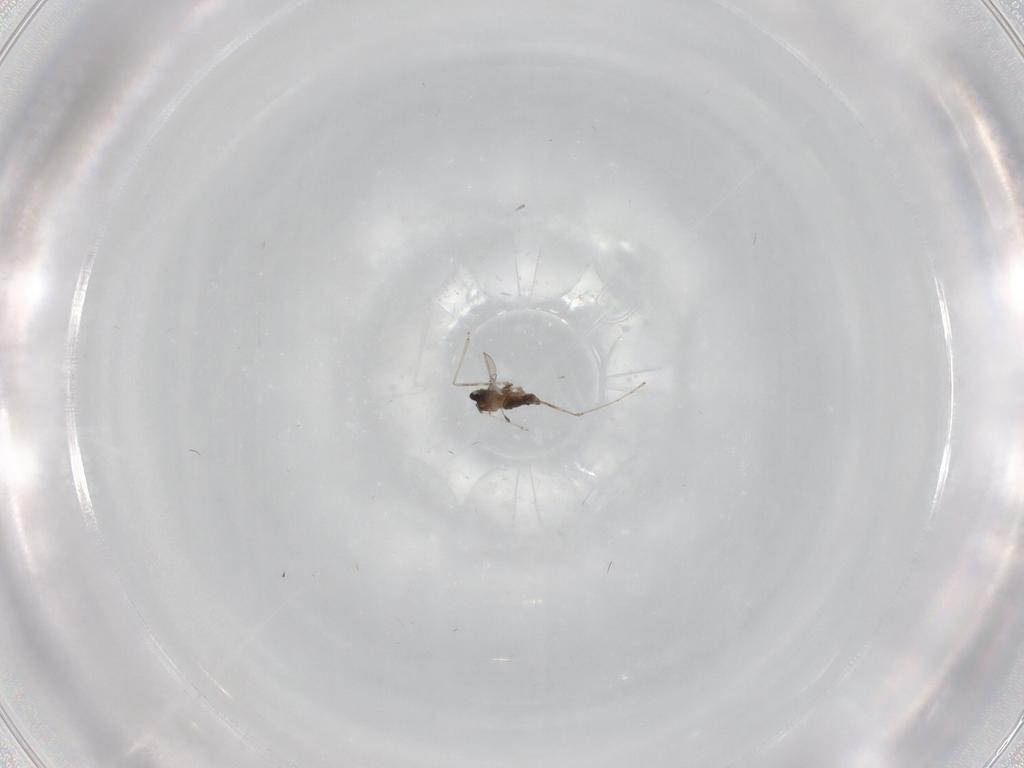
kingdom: Animalia
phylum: Arthropoda
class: Insecta
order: Diptera
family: Cecidomyiidae
